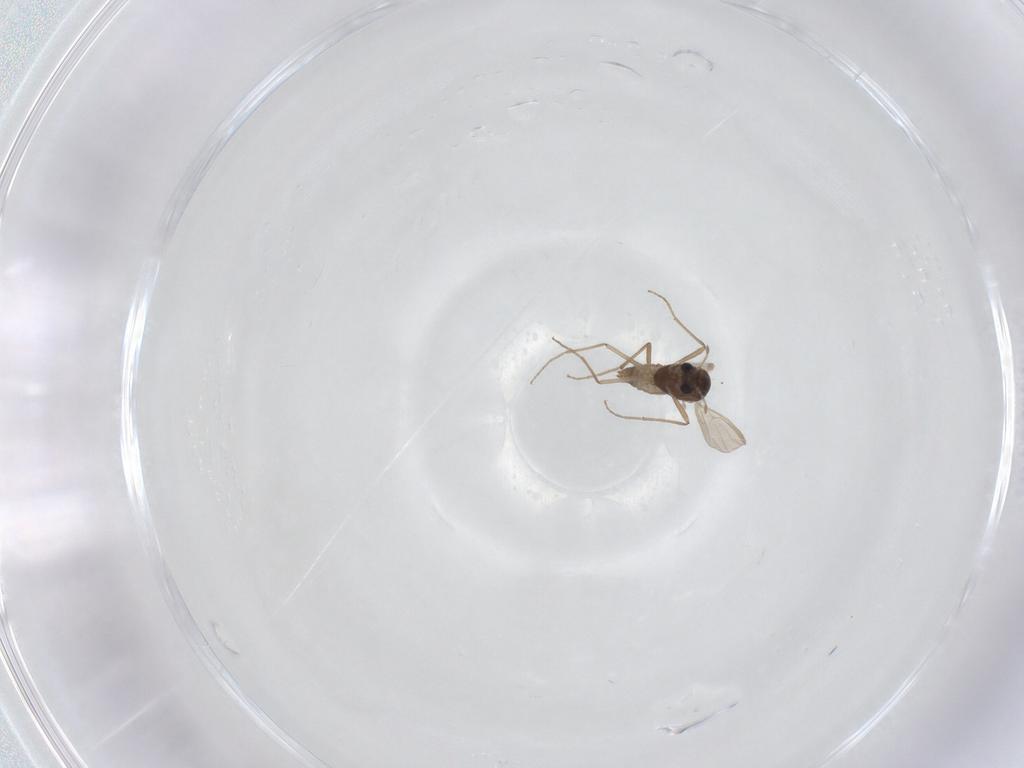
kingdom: Animalia
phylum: Arthropoda
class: Insecta
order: Diptera
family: Chironomidae
